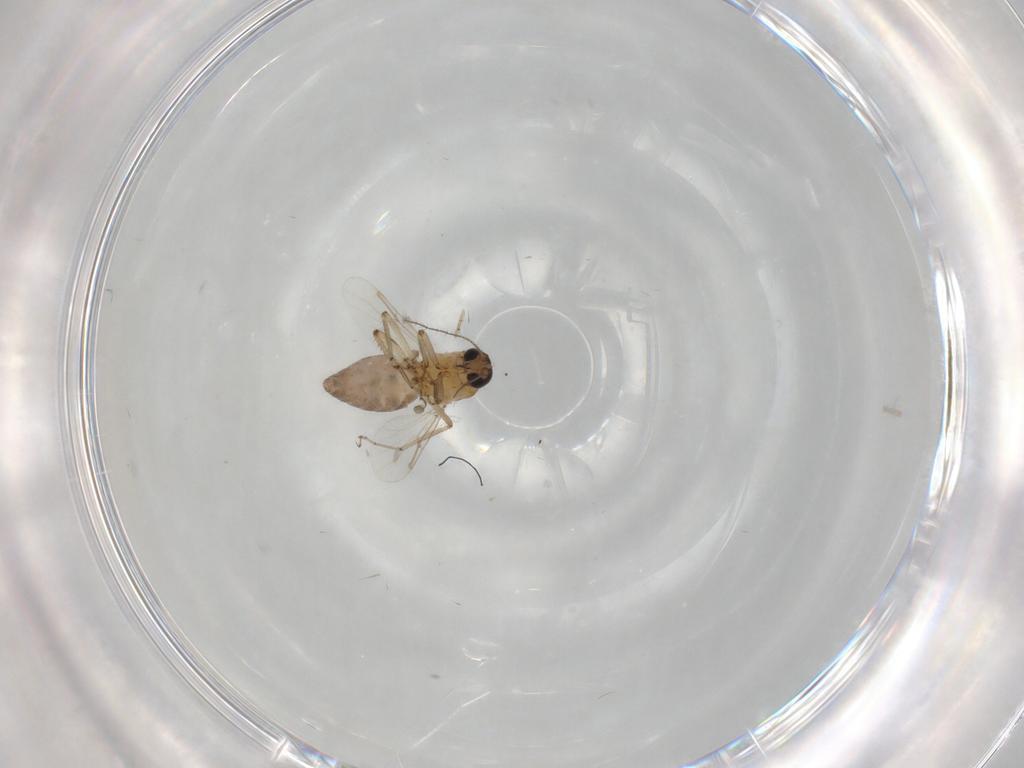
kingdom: Animalia
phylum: Arthropoda
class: Insecta
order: Diptera
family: Ceratopogonidae
